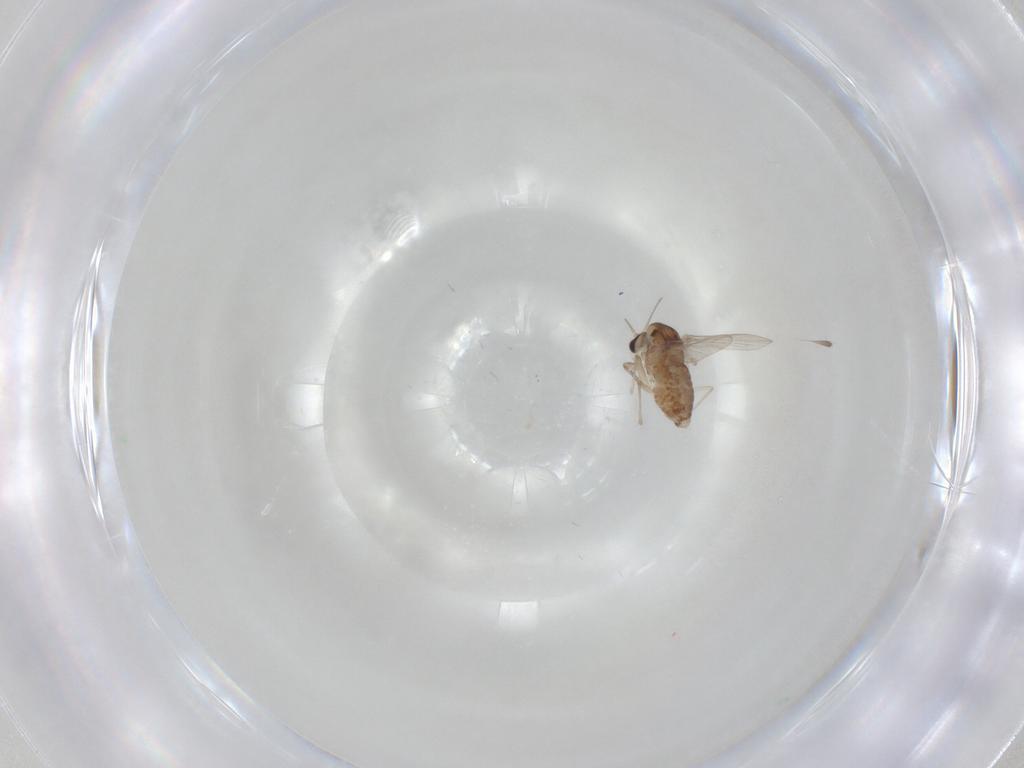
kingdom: Animalia
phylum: Arthropoda
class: Insecta
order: Diptera
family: Chironomidae
